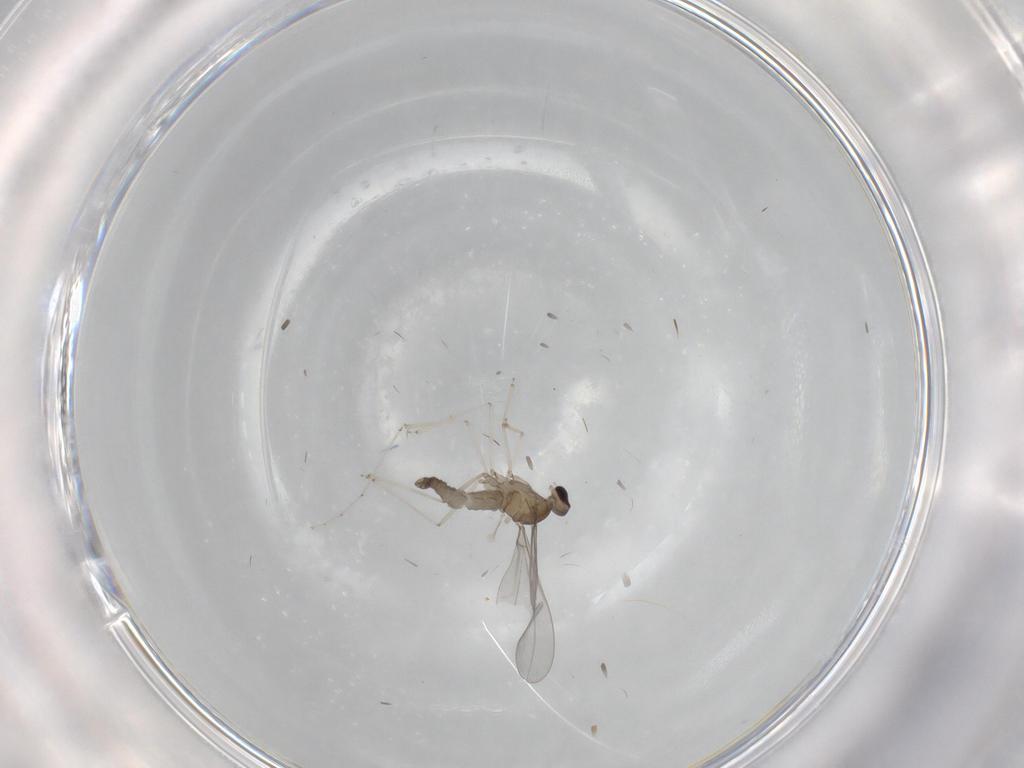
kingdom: Animalia
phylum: Arthropoda
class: Insecta
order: Diptera
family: Cecidomyiidae
